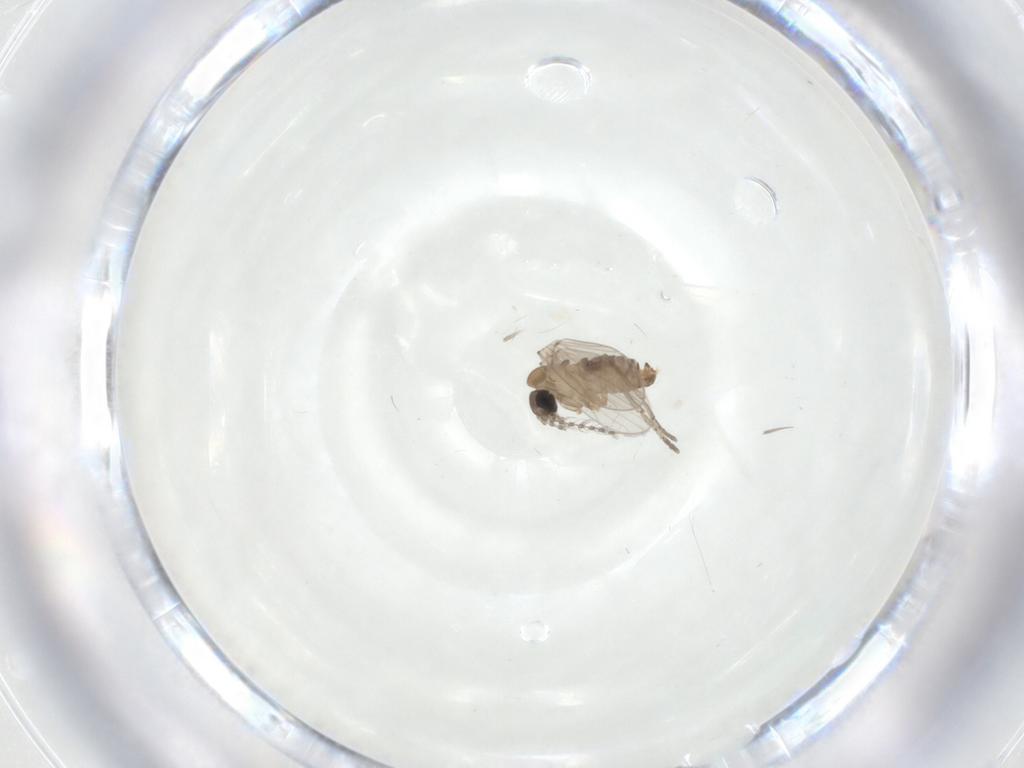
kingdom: Animalia
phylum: Arthropoda
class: Insecta
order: Diptera
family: Psychodidae
